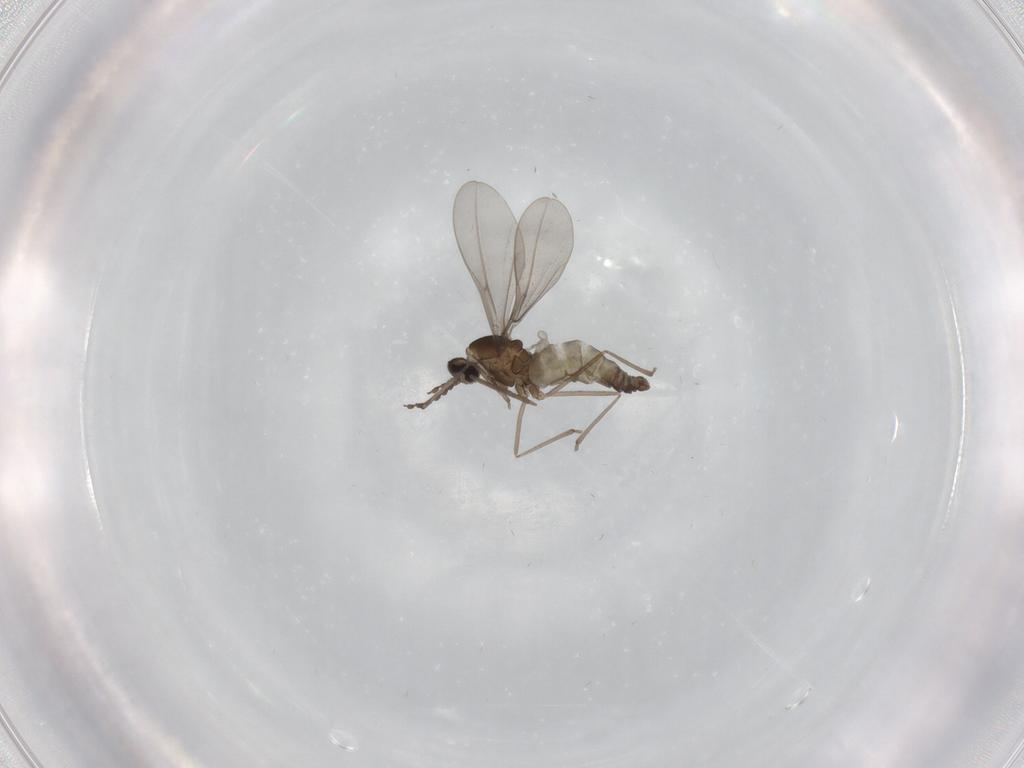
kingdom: Animalia
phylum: Arthropoda
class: Insecta
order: Diptera
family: Cecidomyiidae
